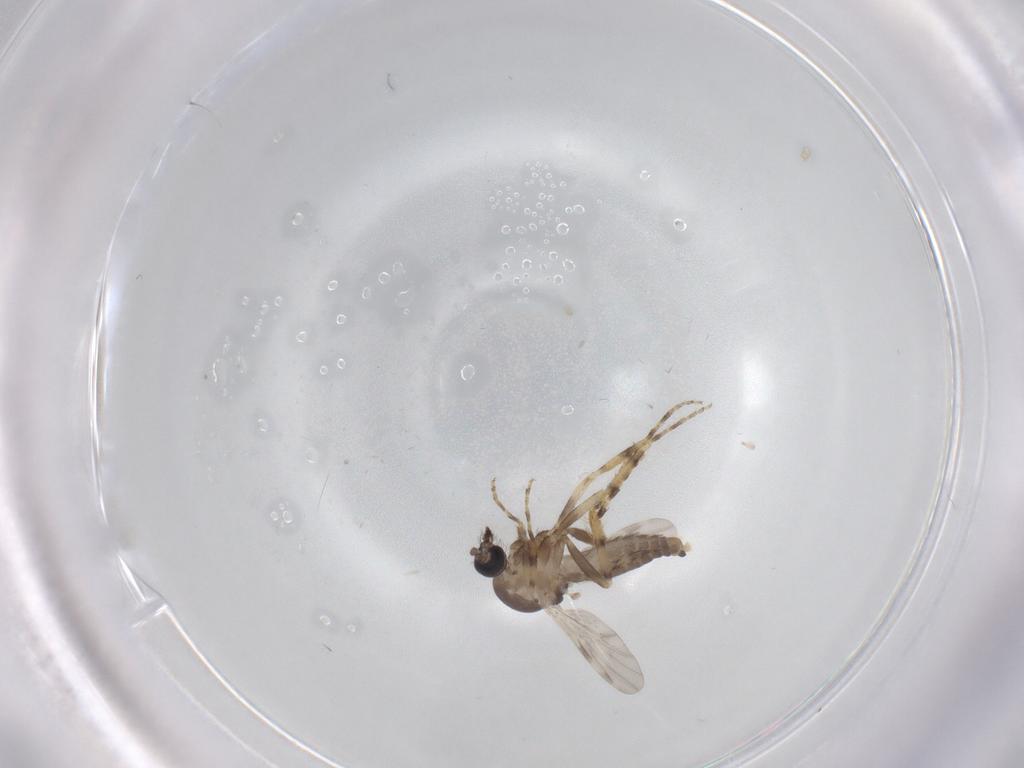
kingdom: Animalia
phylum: Arthropoda
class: Insecta
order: Diptera
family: Ceratopogonidae
